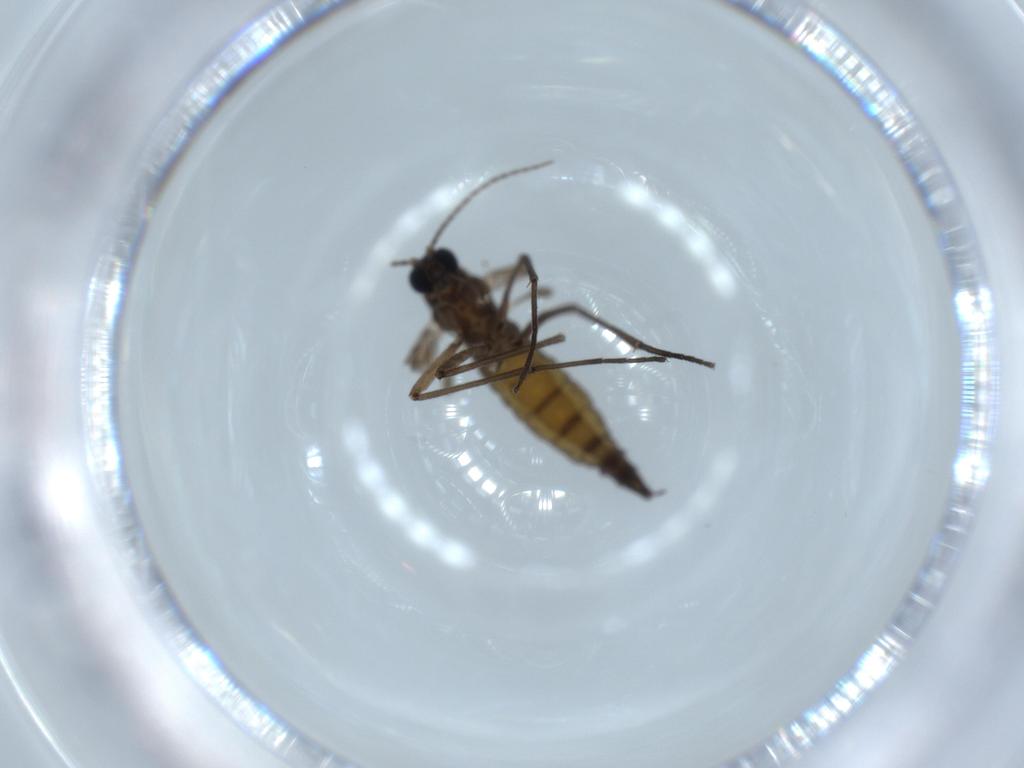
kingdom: Animalia
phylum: Arthropoda
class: Insecta
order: Diptera
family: Sciaridae
